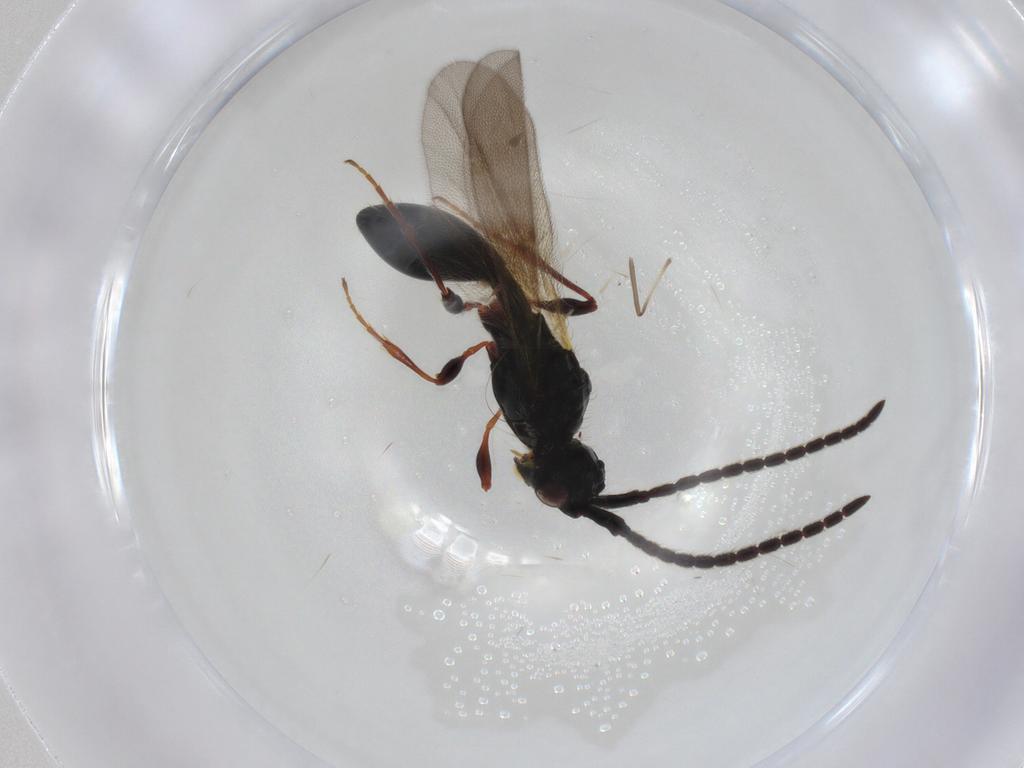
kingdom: Animalia
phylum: Arthropoda
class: Insecta
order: Hymenoptera
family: Diapriidae
